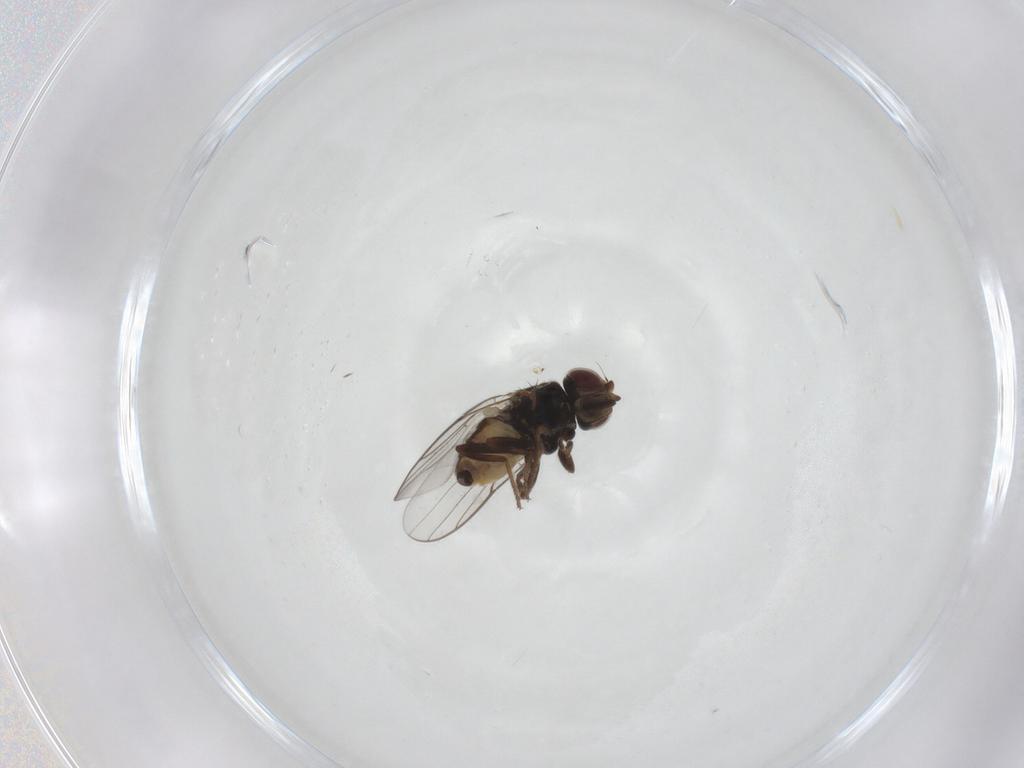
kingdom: Animalia
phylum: Arthropoda
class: Insecta
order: Diptera
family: Chloropidae
